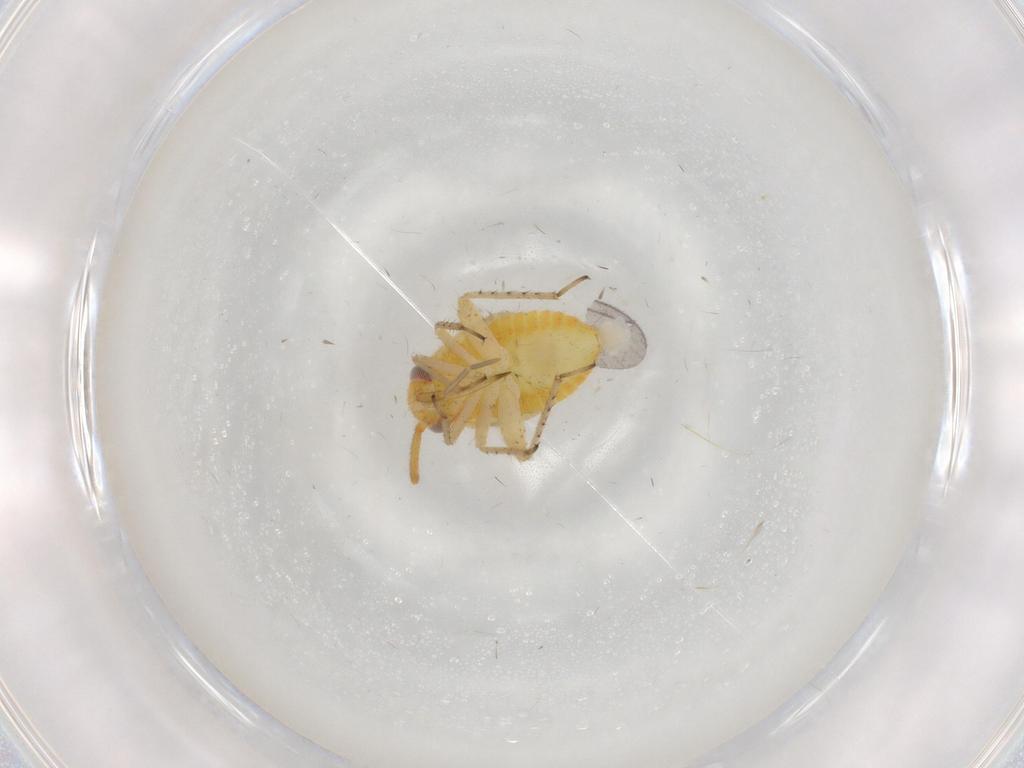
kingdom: Animalia
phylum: Arthropoda
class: Insecta
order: Hemiptera
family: Miridae
